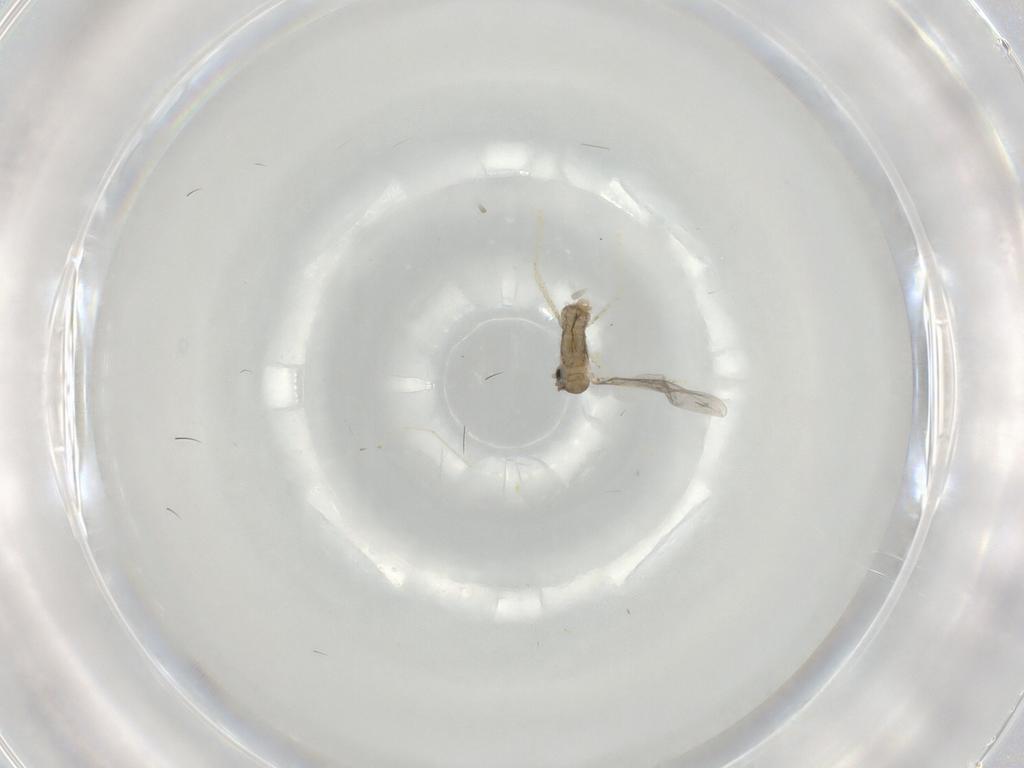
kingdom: Animalia
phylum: Arthropoda
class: Insecta
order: Diptera
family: Cecidomyiidae
